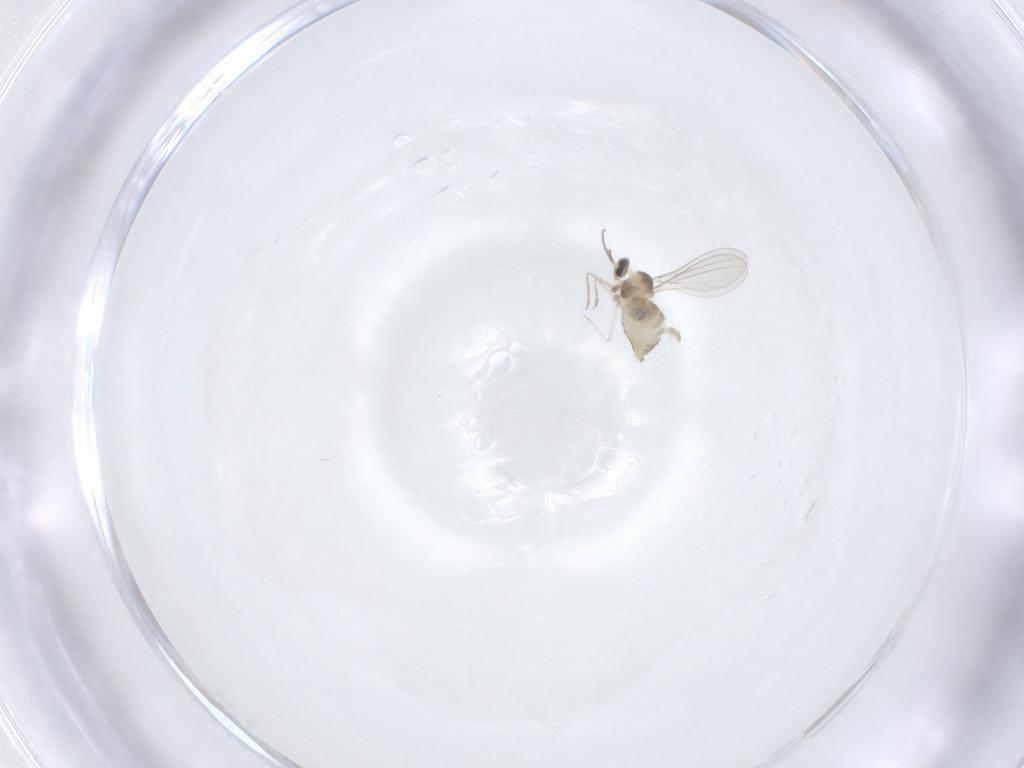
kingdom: Animalia
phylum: Arthropoda
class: Insecta
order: Diptera
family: Cecidomyiidae
